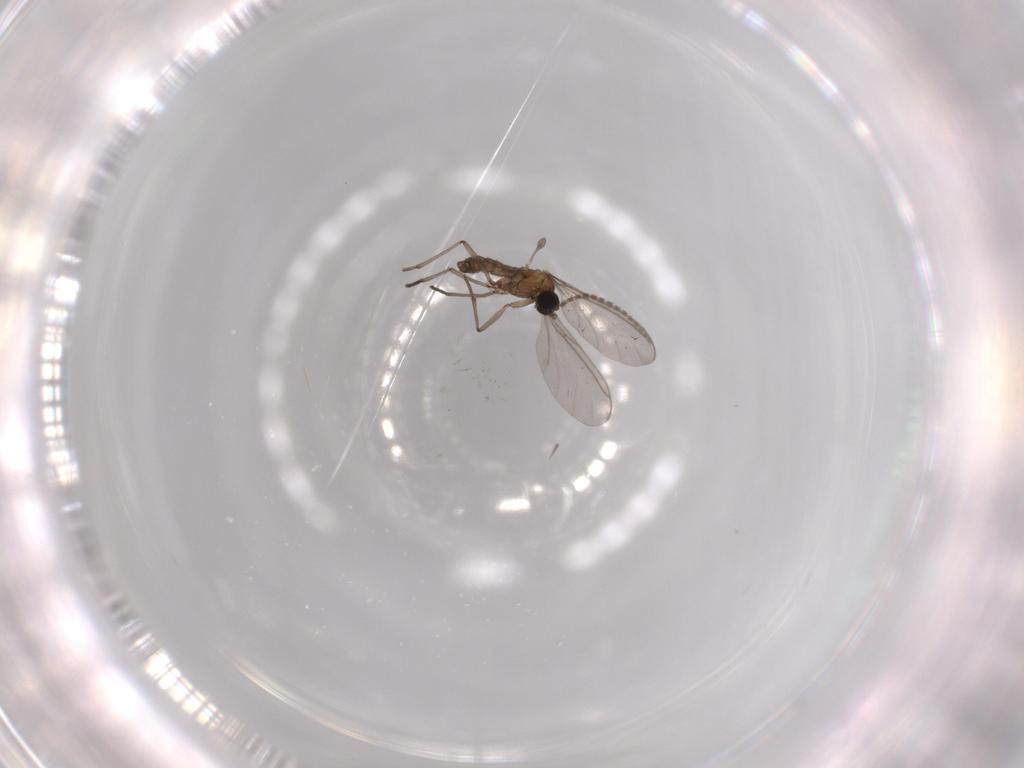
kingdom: Animalia
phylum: Arthropoda
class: Insecta
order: Diptera
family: Sciaridae
